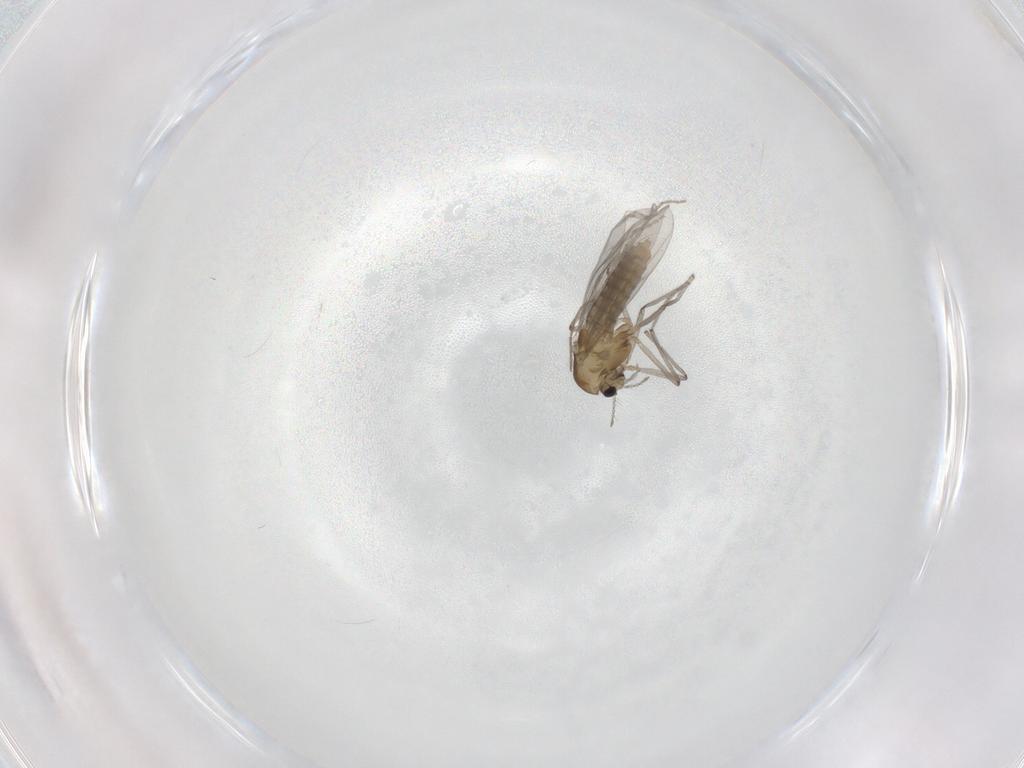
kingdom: Animalia
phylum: Arthropoda
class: Insecta
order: Diptera
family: Chironomidae
